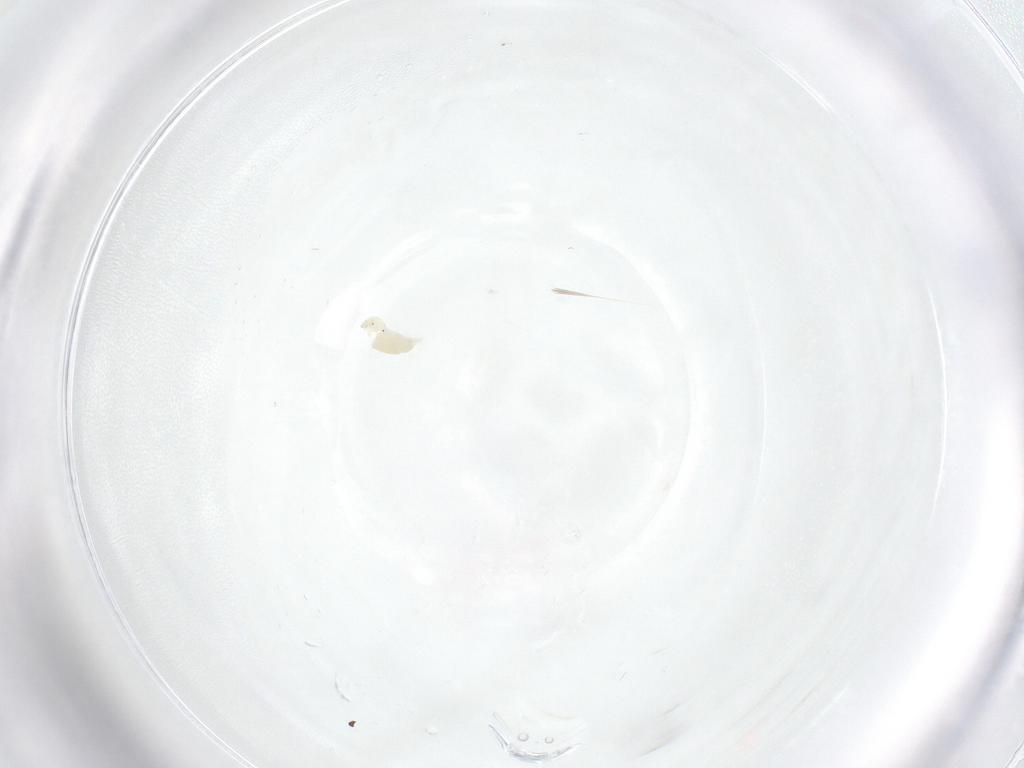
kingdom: Animalia
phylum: Arthropoda
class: Arachnida
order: Trombidiformes
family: Eupodidae
